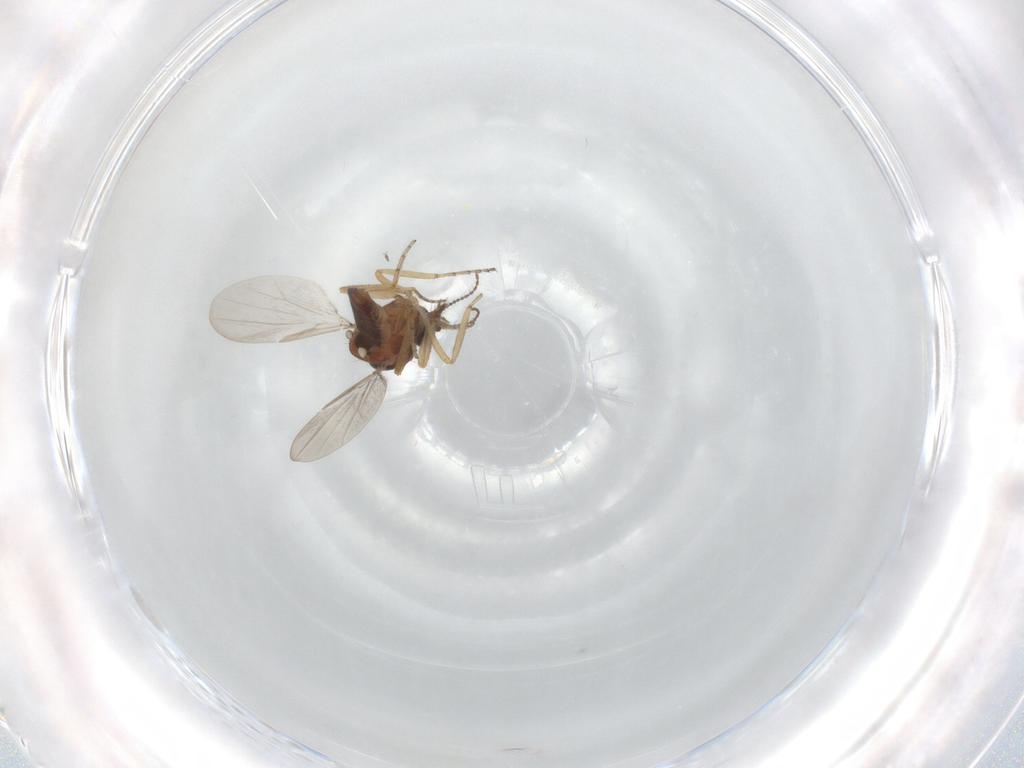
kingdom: Animalia
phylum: Arthropoda
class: Insecta
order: Diptera
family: Ceratopogonidae
